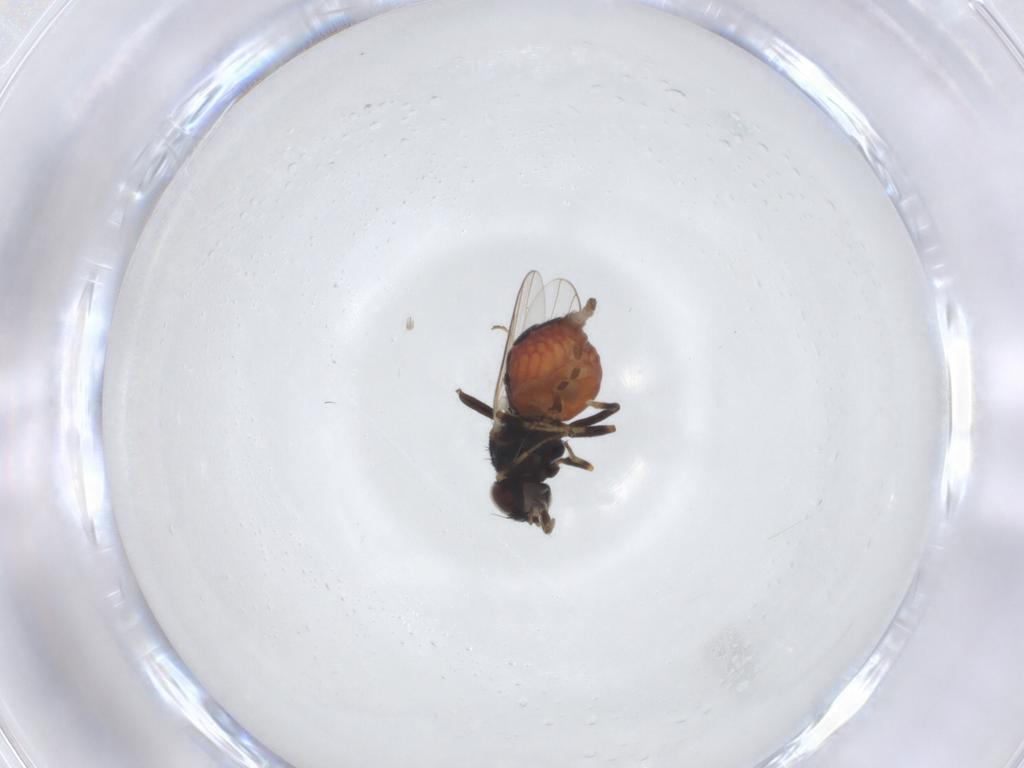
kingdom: Animalia
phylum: Arthropoda
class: Insecta
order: Diptera
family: Chloropidae
